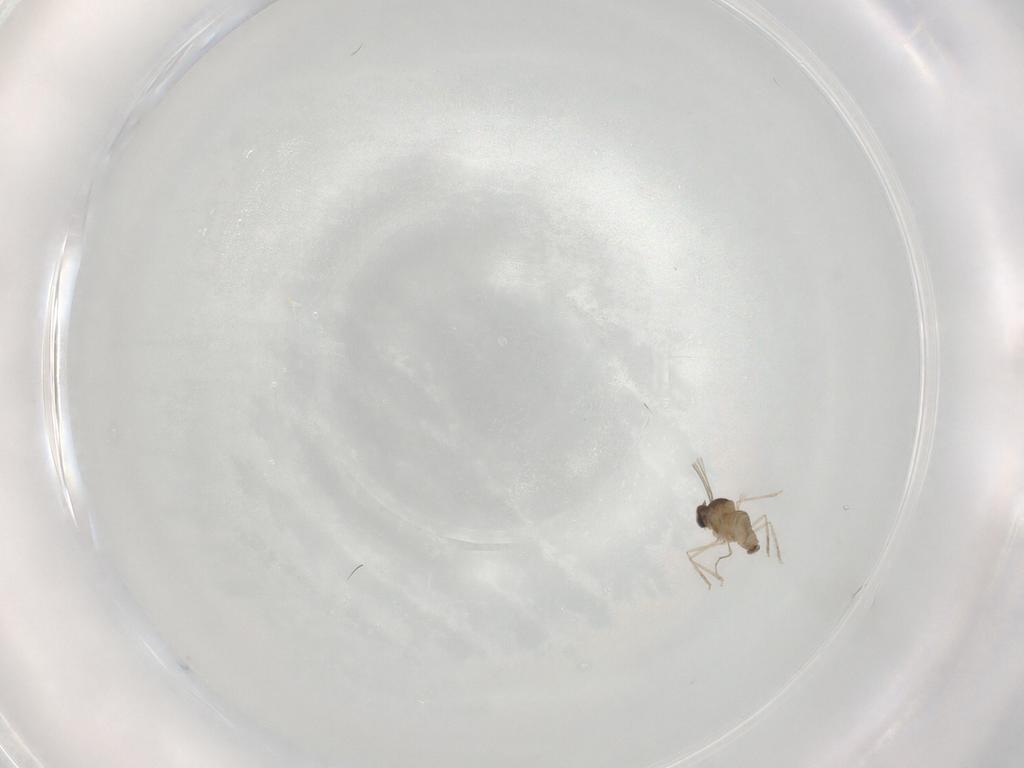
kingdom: Animalia
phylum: Arthropoda
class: Insecta
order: Diptera
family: Cecidomyiidae
